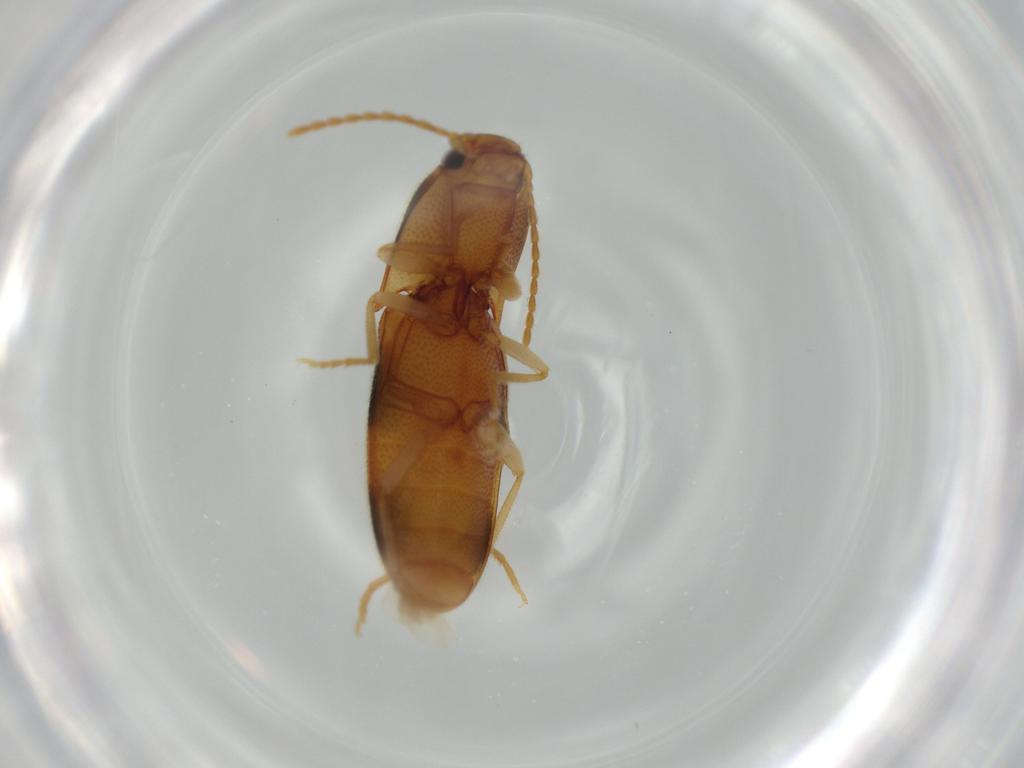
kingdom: Animalia
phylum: Arthropoda
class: Insecta
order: Coleoptera
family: Elateridae
